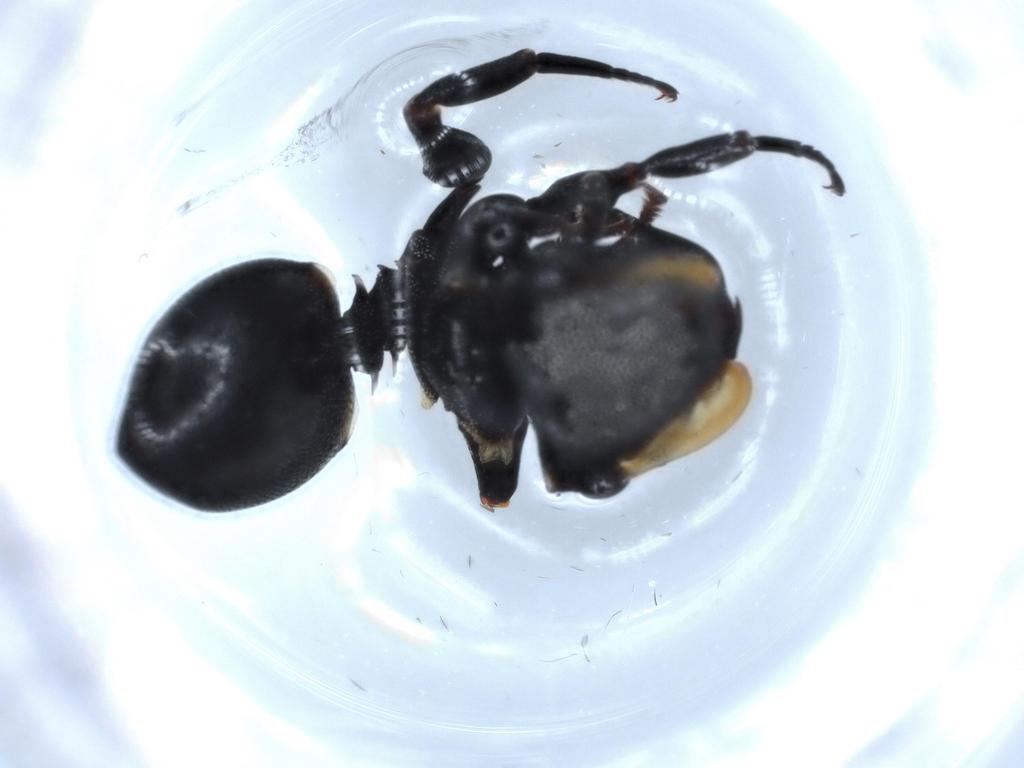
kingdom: Animalia
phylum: Arthropoda
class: Insecta
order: Hymenoptera
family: Formicidae
